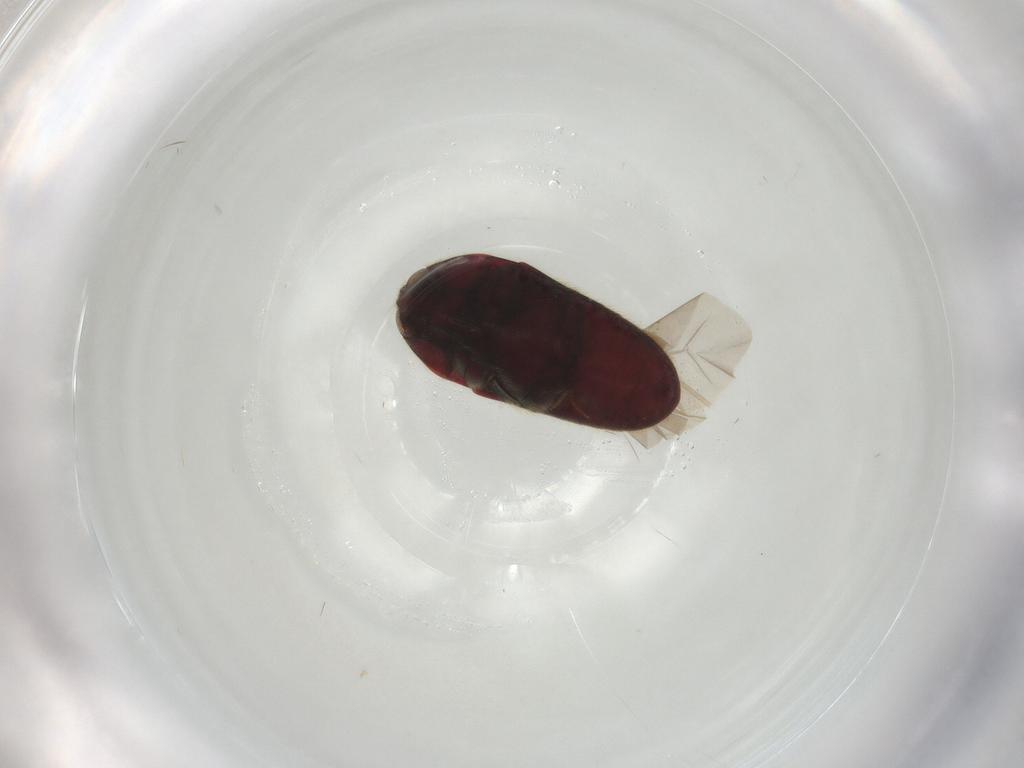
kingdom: Animalia
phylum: Arthropoda
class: Insecta
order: Coleoptera
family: Throscidae
